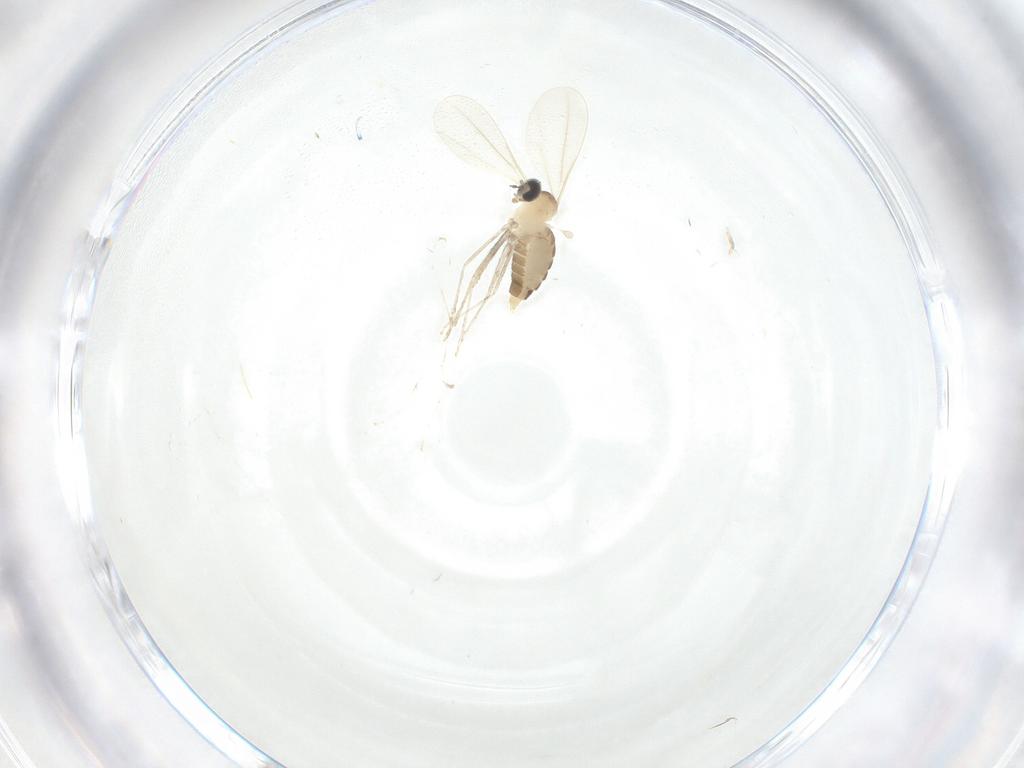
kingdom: Animalia
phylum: Arthropoda
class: Insecta
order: Diptera
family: Cecidomyiidae
